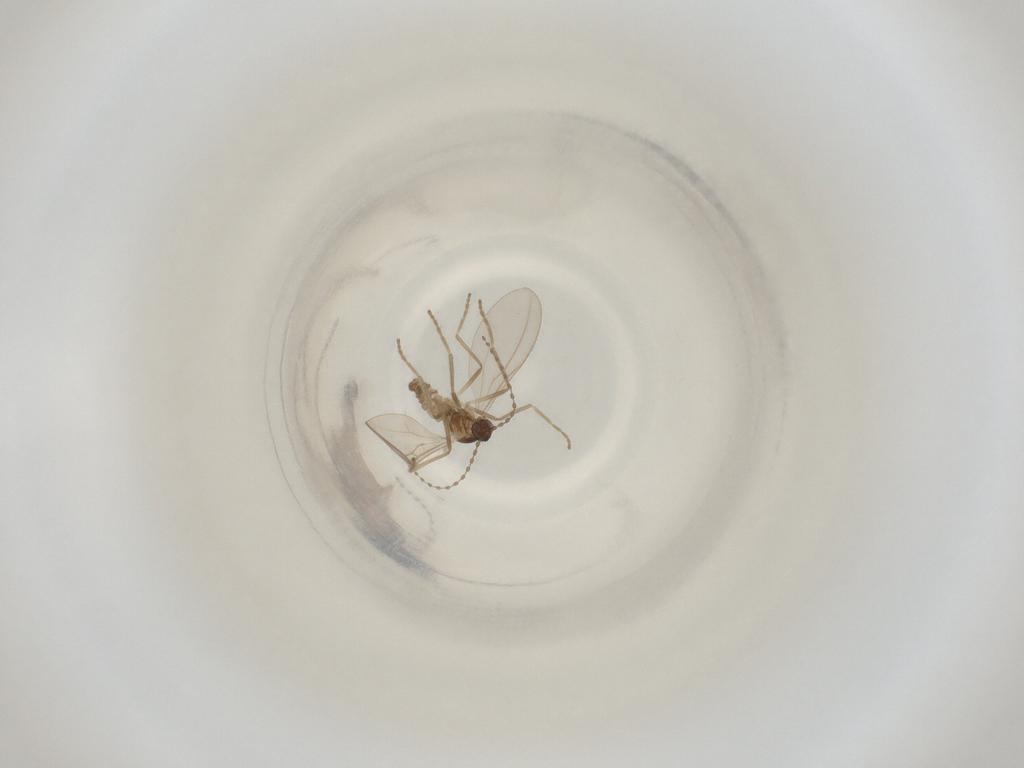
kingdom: Animalia
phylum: Arthropoda
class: Insecta
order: Diptera
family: Cecidomyiidae
